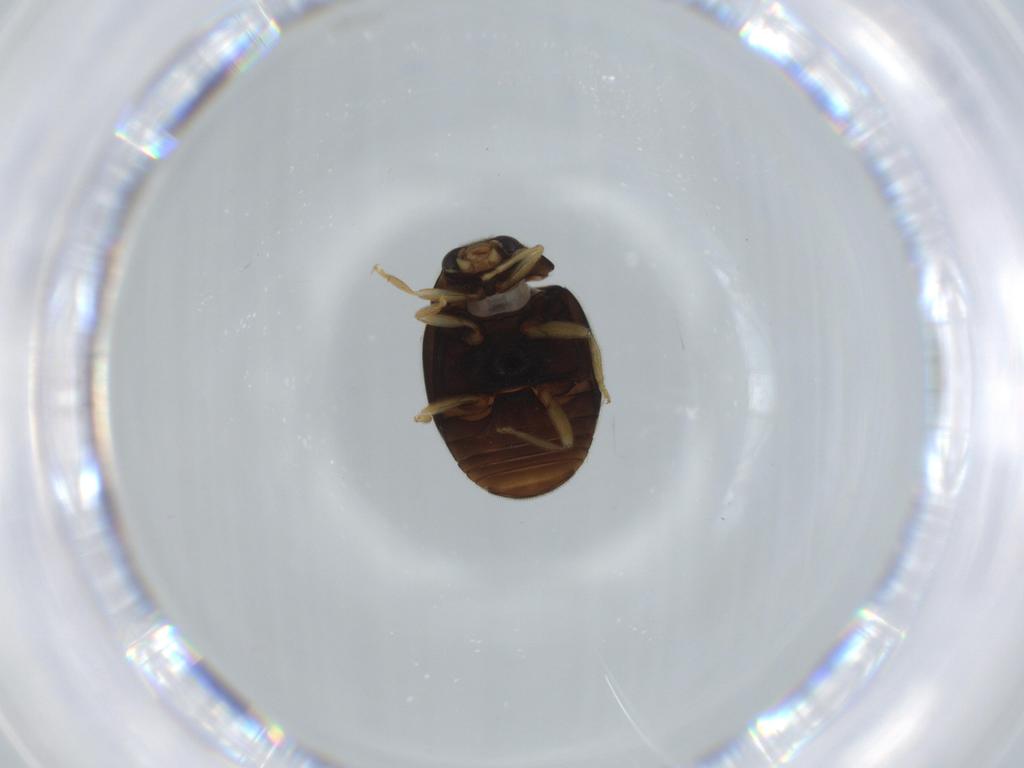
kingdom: Animalia
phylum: Arthropoda
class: Insecta
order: Coleoptera
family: Coccinellidae
